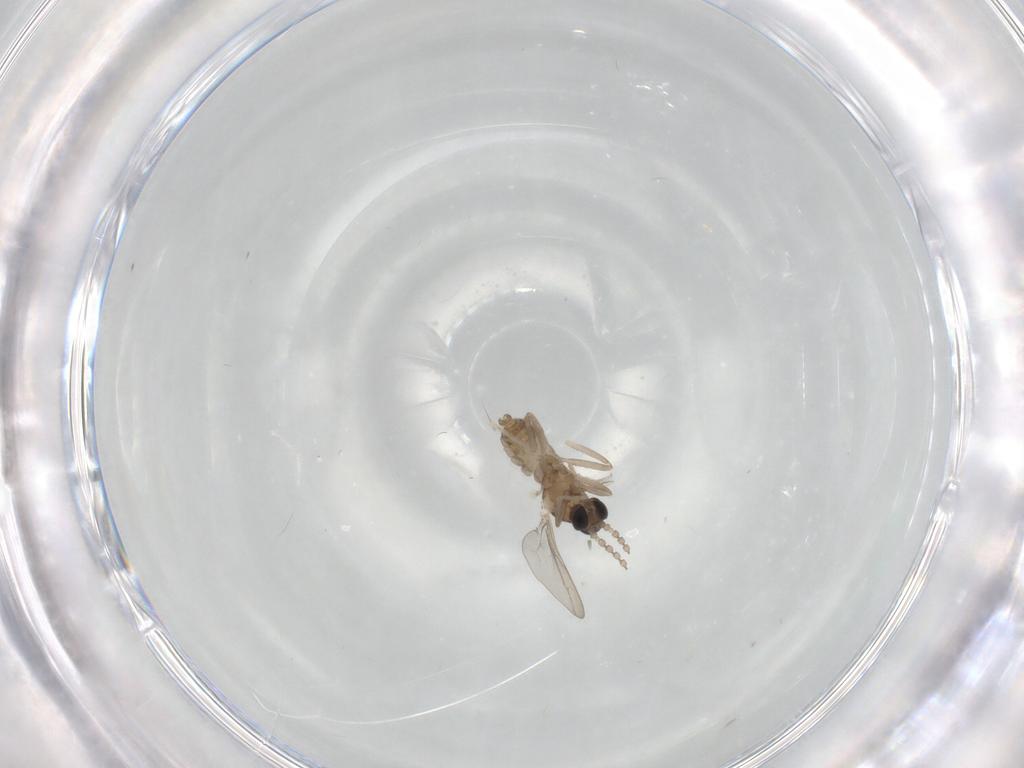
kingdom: Animalia
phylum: Arthropoda
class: Insecta
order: Diptera
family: Cecidomyiidae
